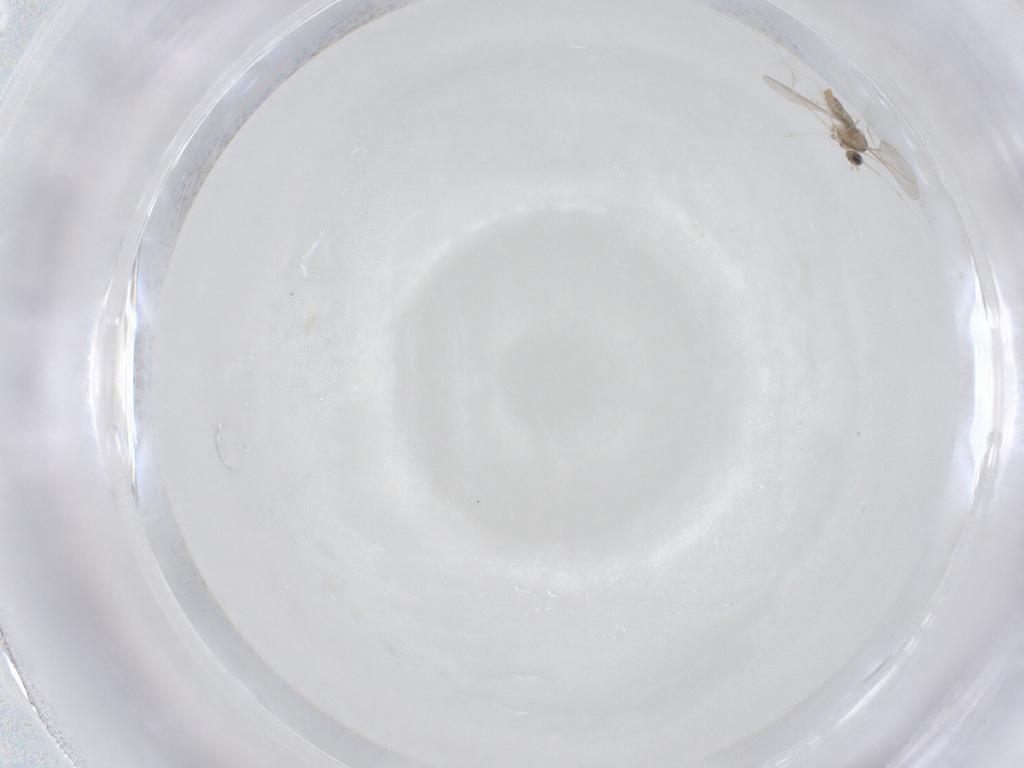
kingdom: Animalia
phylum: Arthropoda
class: Insecta
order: Diptera
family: Cecidomyiidae
